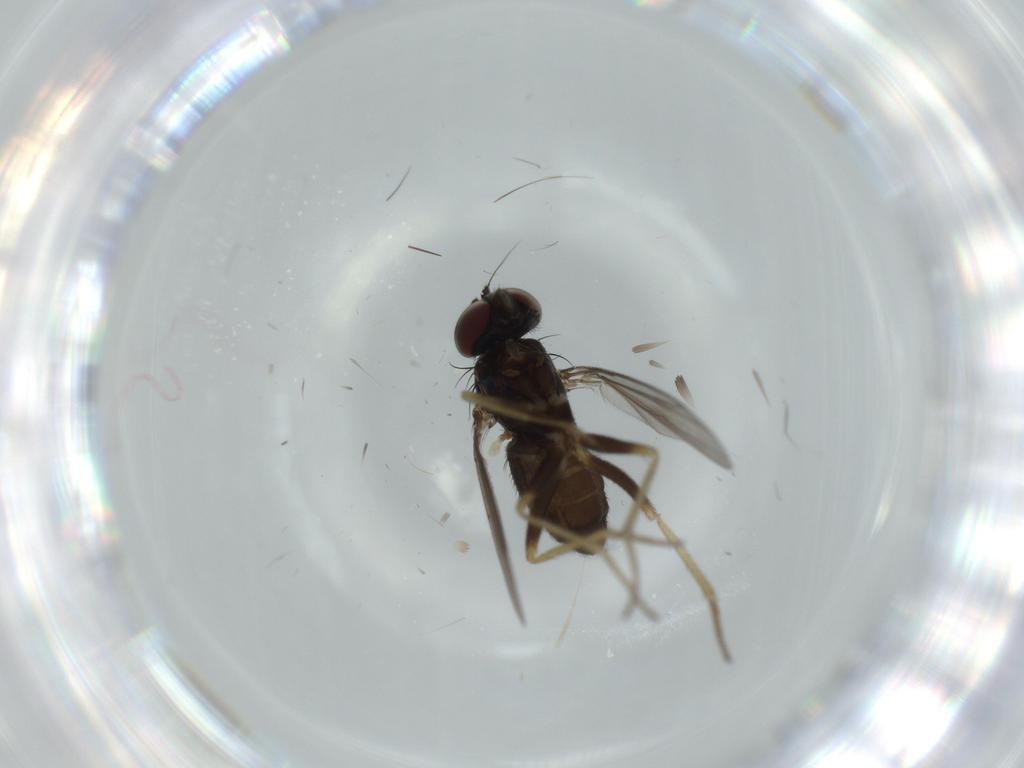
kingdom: Animalia
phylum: Arthropoda
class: Insecta
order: Diptera
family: Dolichopodidae
